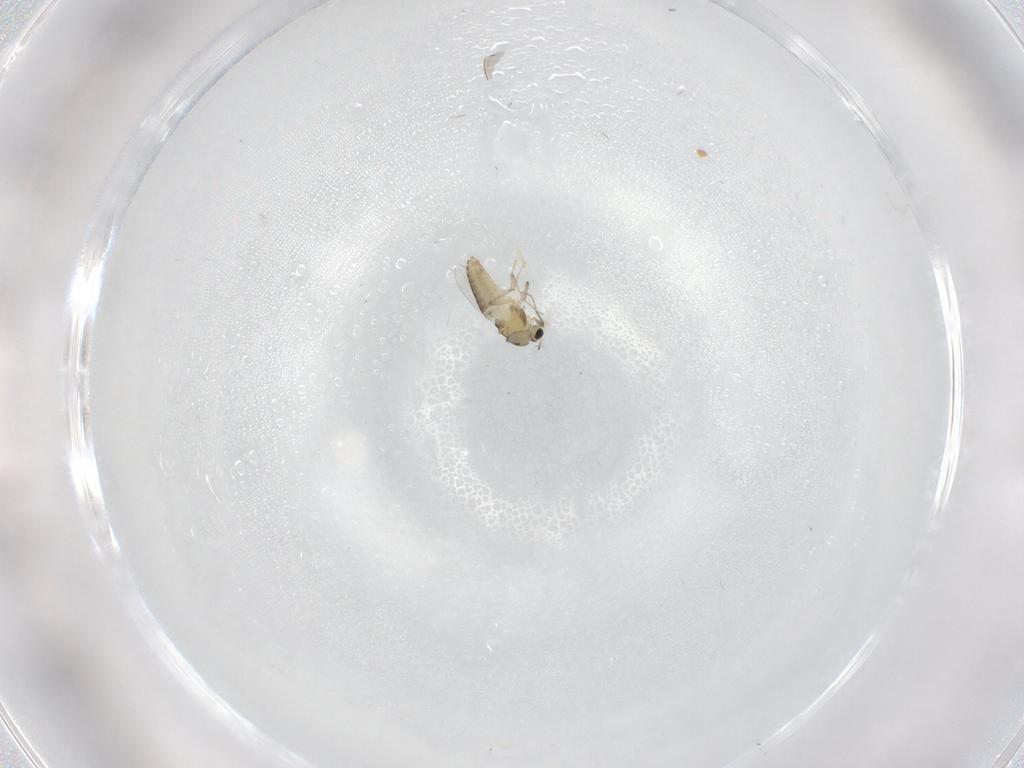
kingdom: Animalia
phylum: Arthropoda
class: Insecta
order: Diptera
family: Chironomidae
